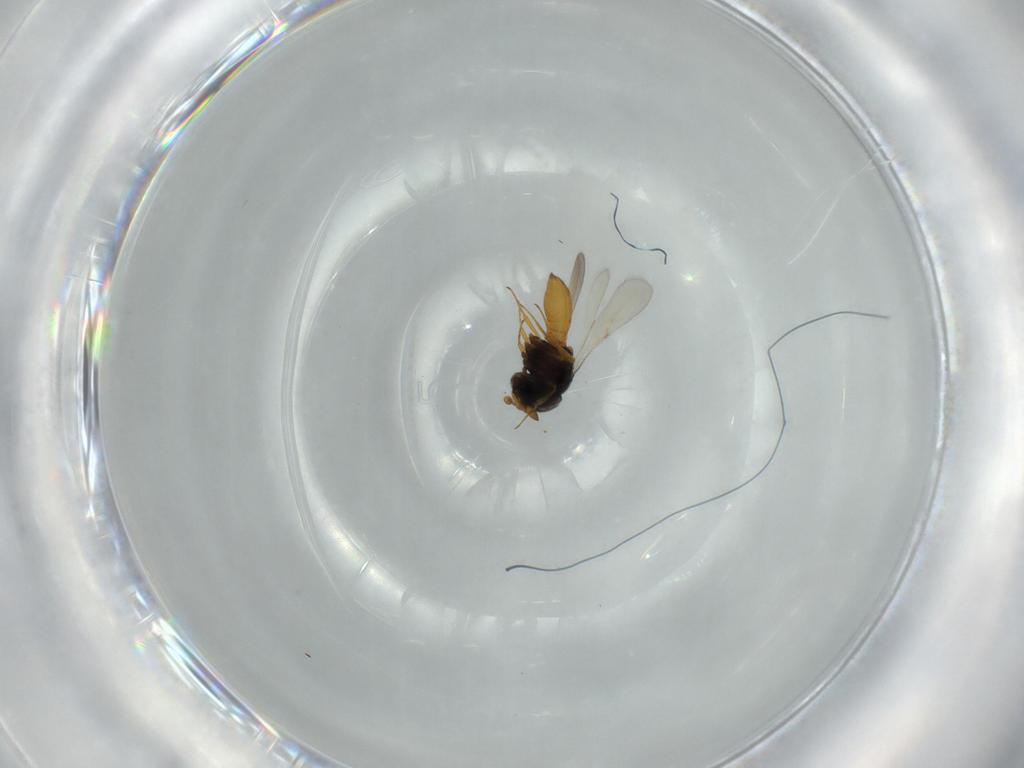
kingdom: Animalia
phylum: Arthropoda
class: Insecta
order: Hymenoptera
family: Scelionidae
